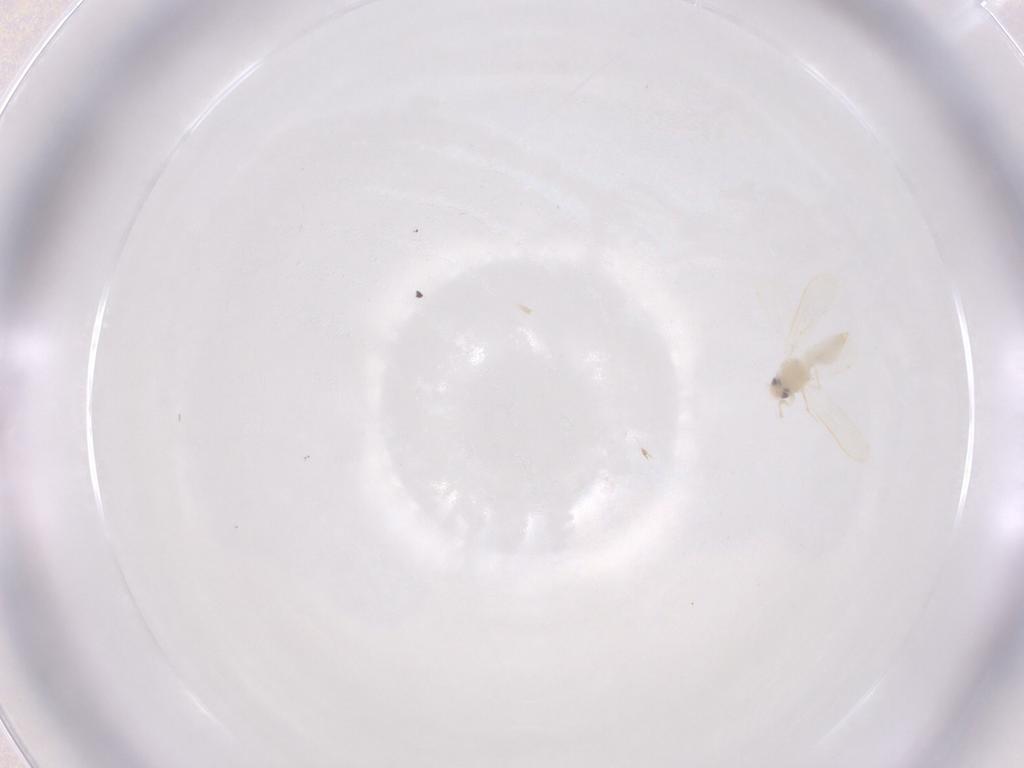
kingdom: Animalia
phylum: Arthropoda
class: Insecta
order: Hemiptera
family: Aleyrodidae
